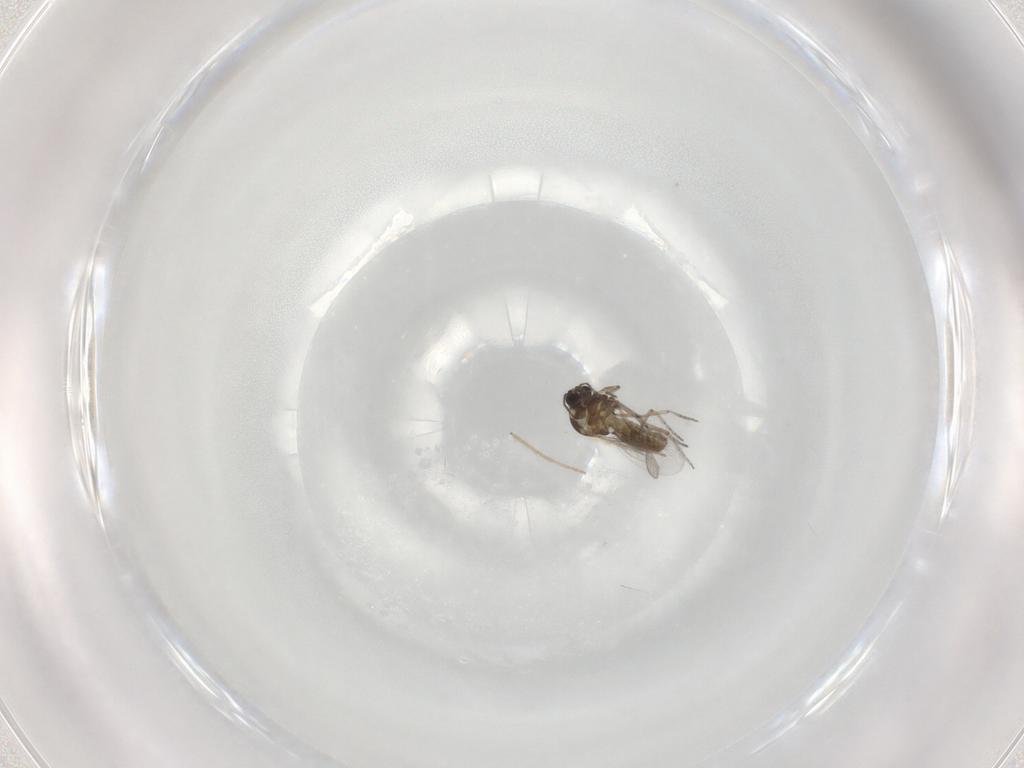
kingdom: Animalia
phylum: Arthropoda
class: Insecta
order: Diptera
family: Ceratopogonidae
